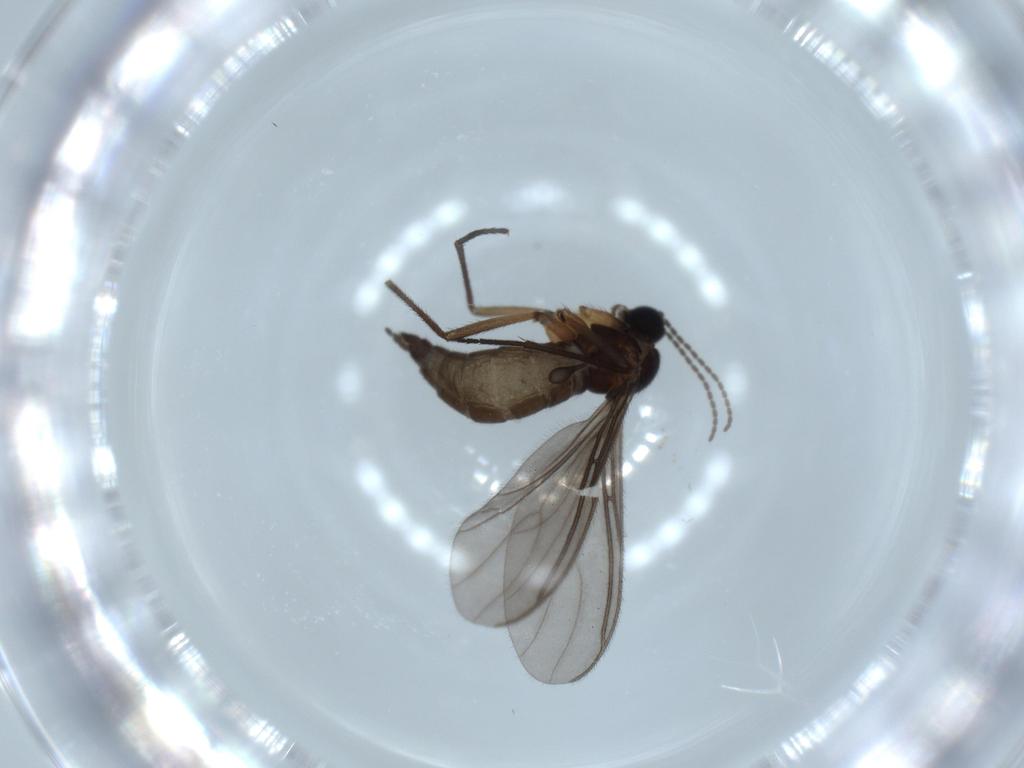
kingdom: Animalia
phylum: Arthropoda
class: Insecta
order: Diptera
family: Sciaridae
